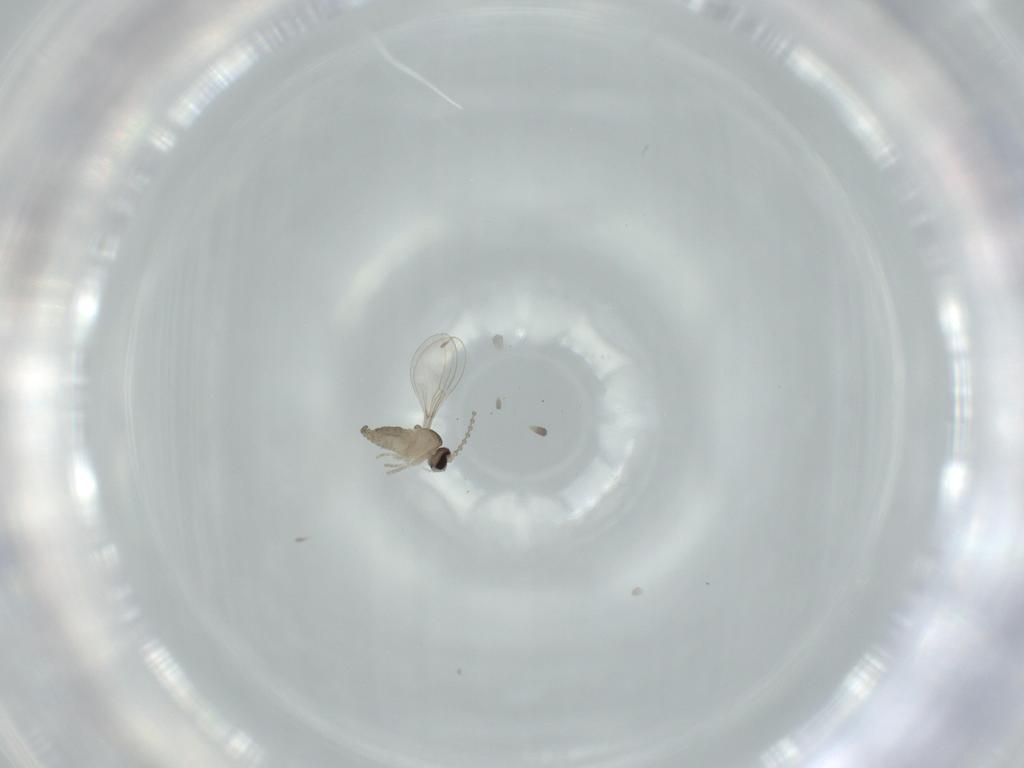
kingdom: Animalia
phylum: Arthropoda
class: Insecta
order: Diptera
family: Cecidomyiidae
